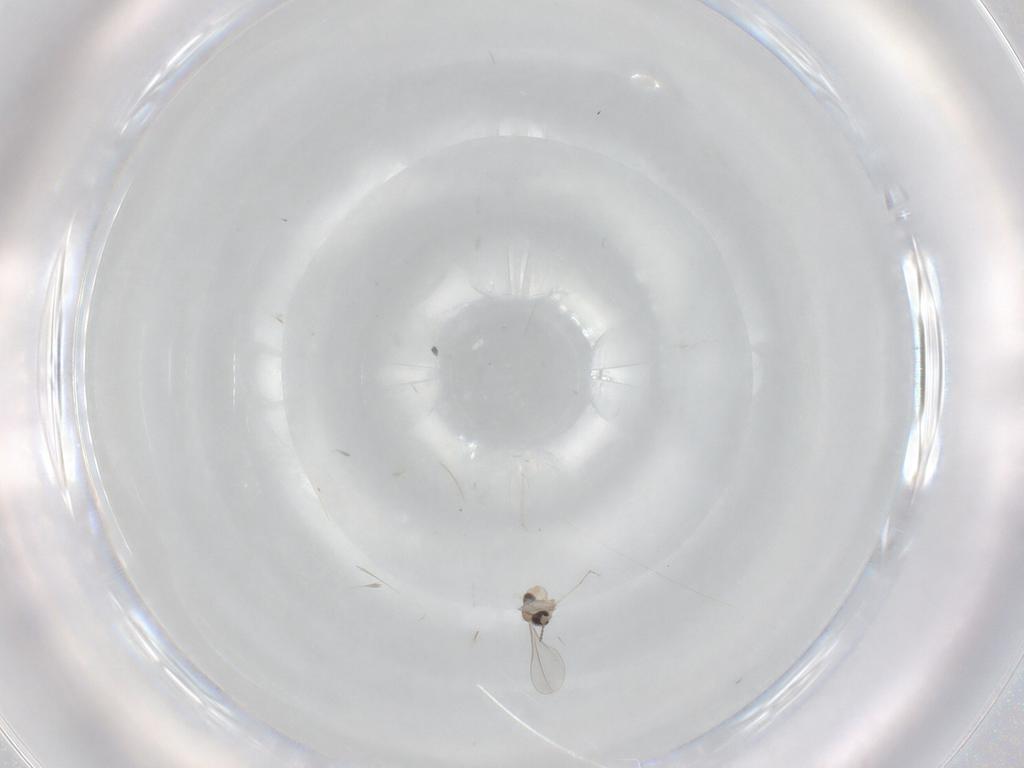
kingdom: Animalia
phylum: Arthropoda
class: Insecta
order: Diptera
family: Cecidomyiidae
